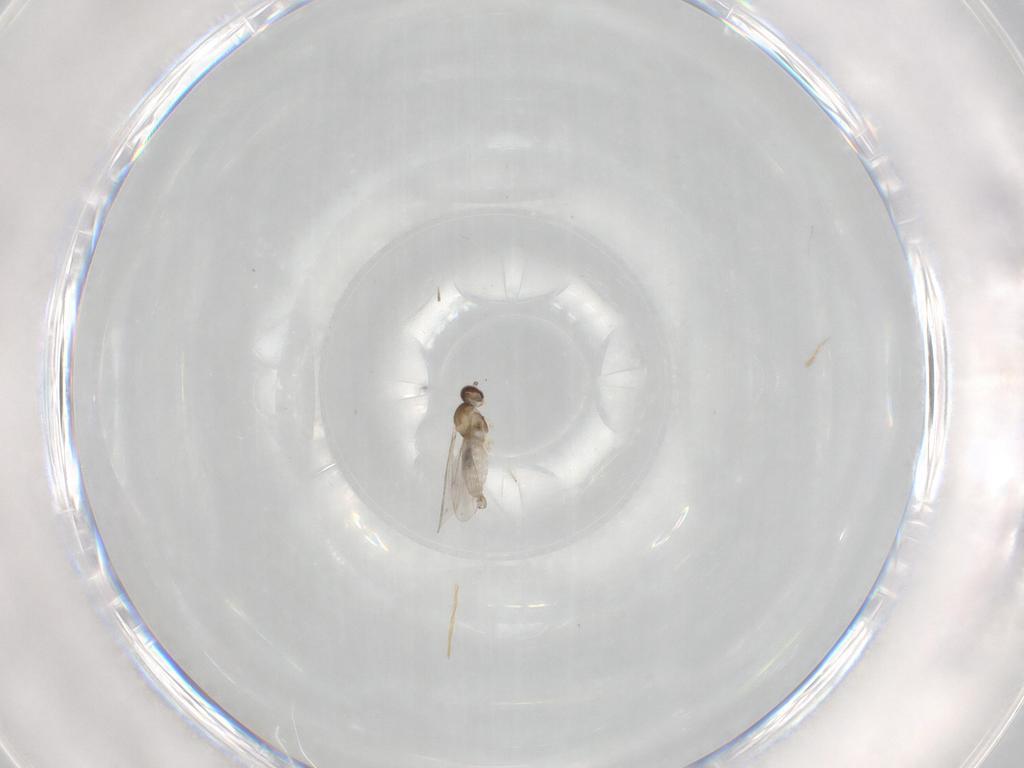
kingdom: Animalia
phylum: Arthropoda
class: Insecta
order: Diptera
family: Cecidomyiidae
